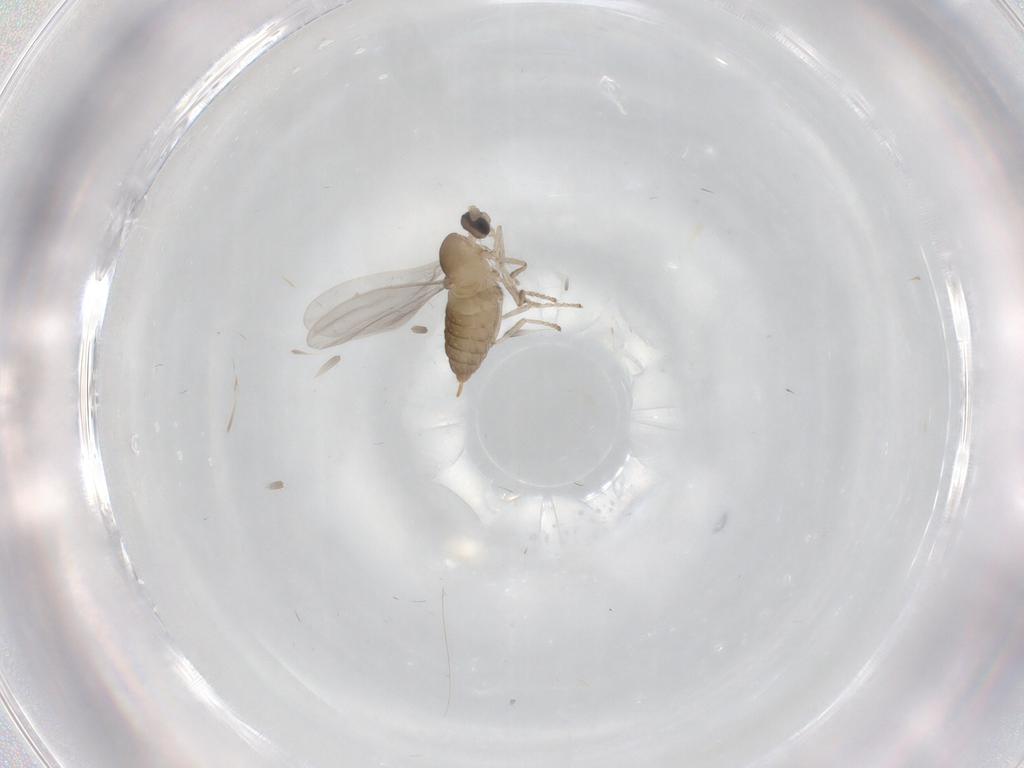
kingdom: Animalia
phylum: Arthropoda
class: Insecta
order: Diptera
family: Cecidomyiidae
